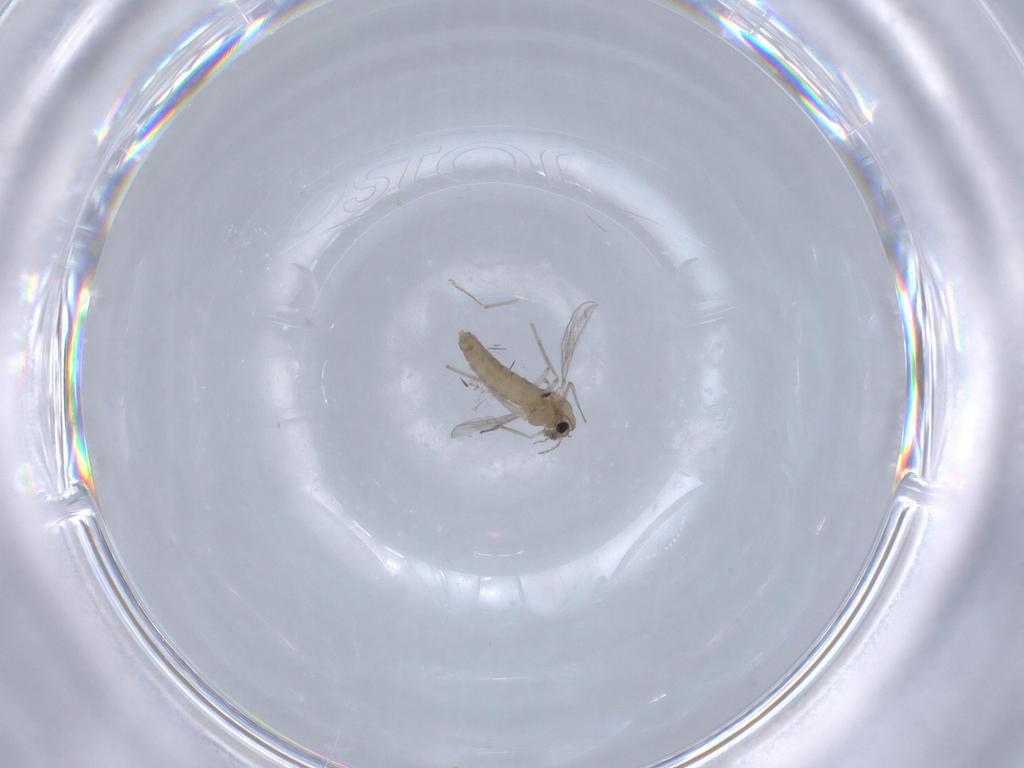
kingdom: Animalia
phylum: Arthropoda
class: Insecta
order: Diptera
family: Chironomidae
